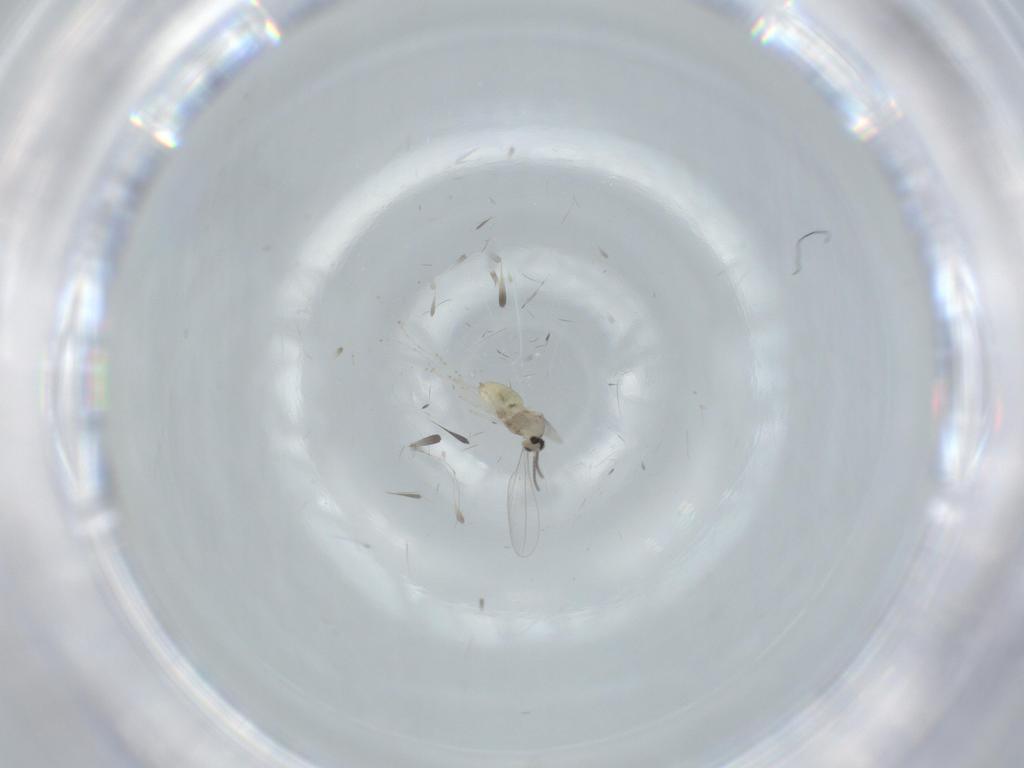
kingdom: Animalia
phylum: Arthropoda
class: Insecta
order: Diptera
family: Cecidomyiidae
